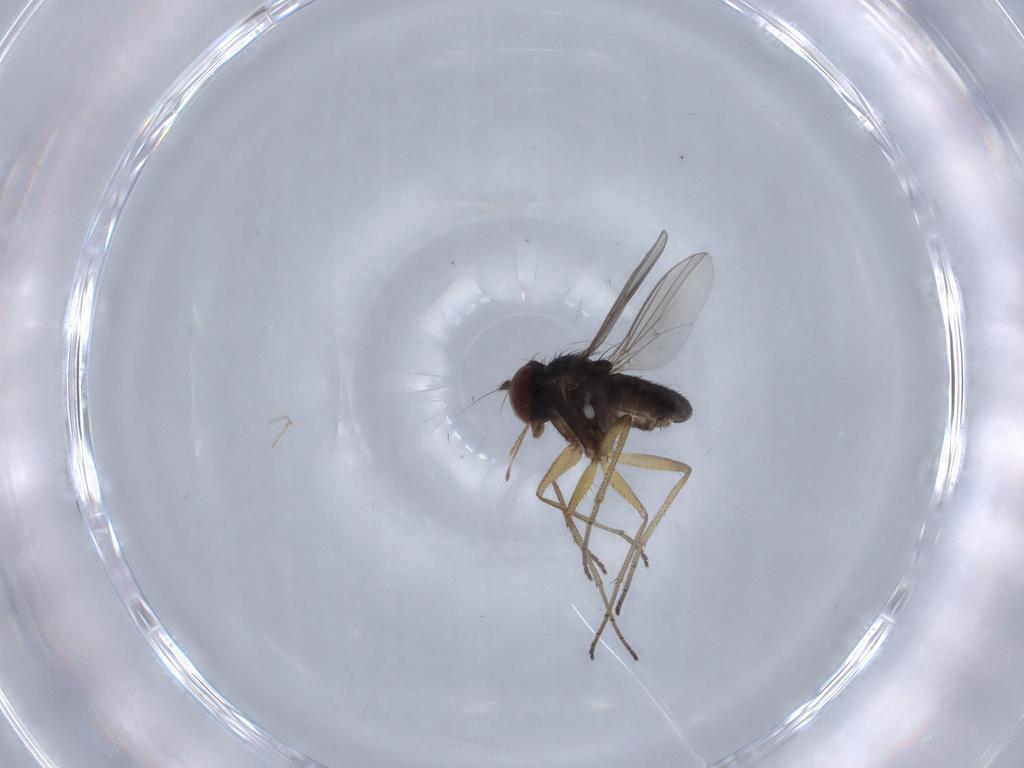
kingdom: Animalia
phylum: Arthropoda
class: Insecta
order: Diptera
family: Dolichopodidae
